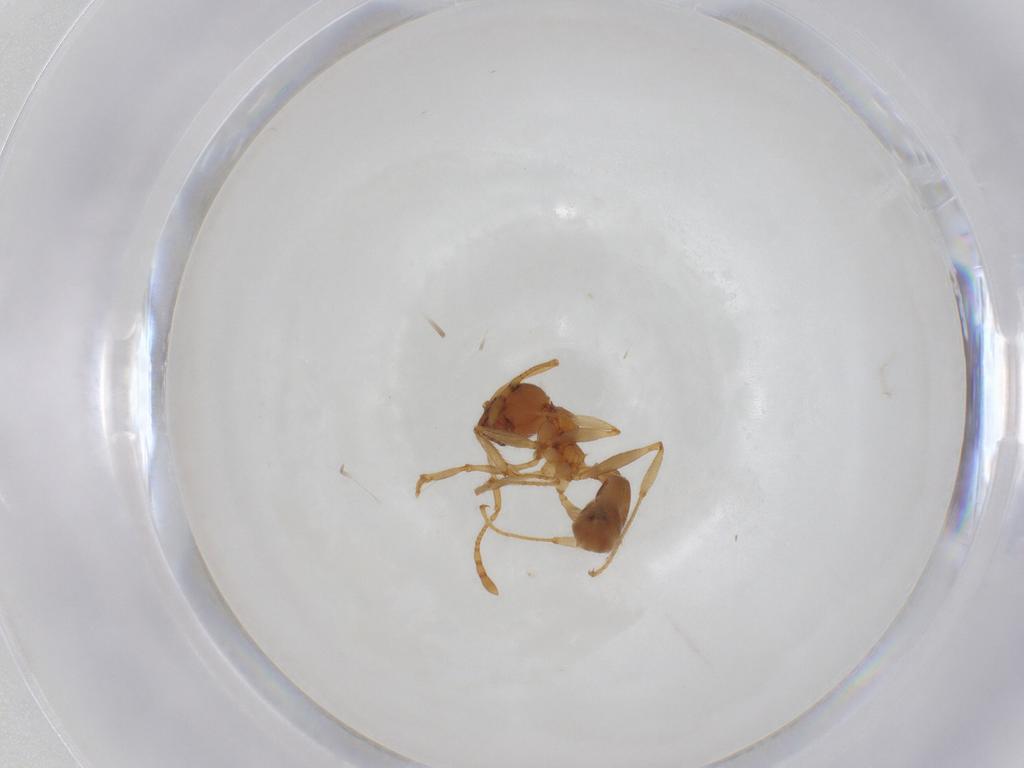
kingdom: Animalia
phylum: Arthropoda
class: Insecta
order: Hymenoptera
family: Formicidae
